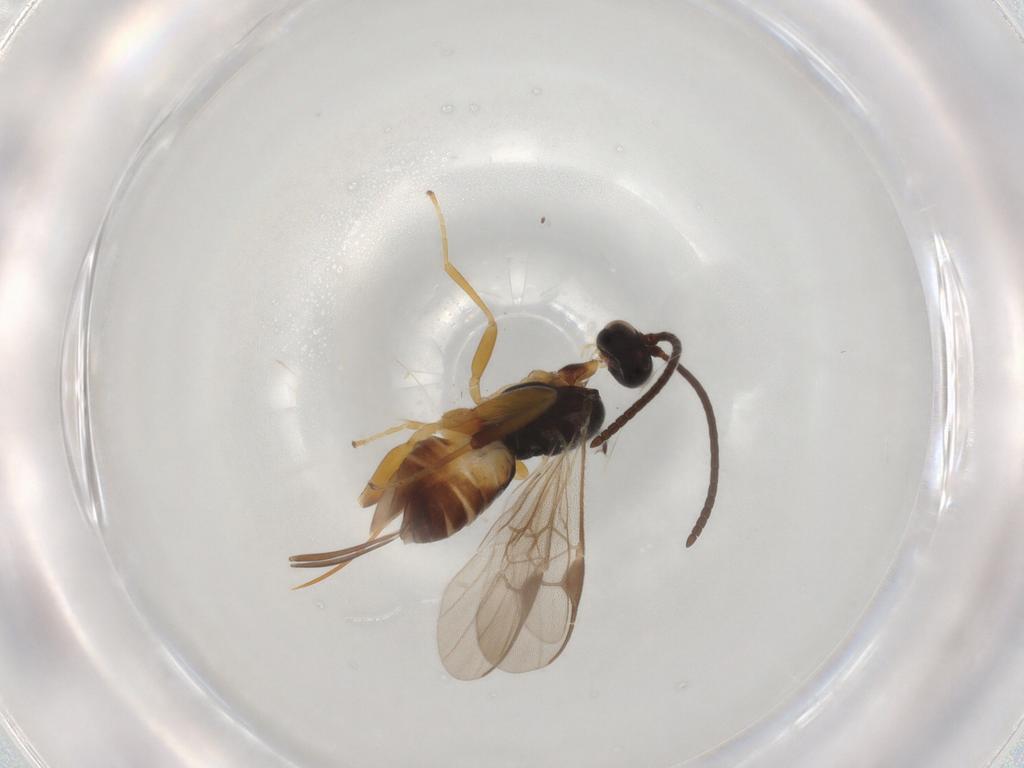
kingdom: Animalia
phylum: Arthropoda
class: Insecta
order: Hymenoptera
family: Braconidae
